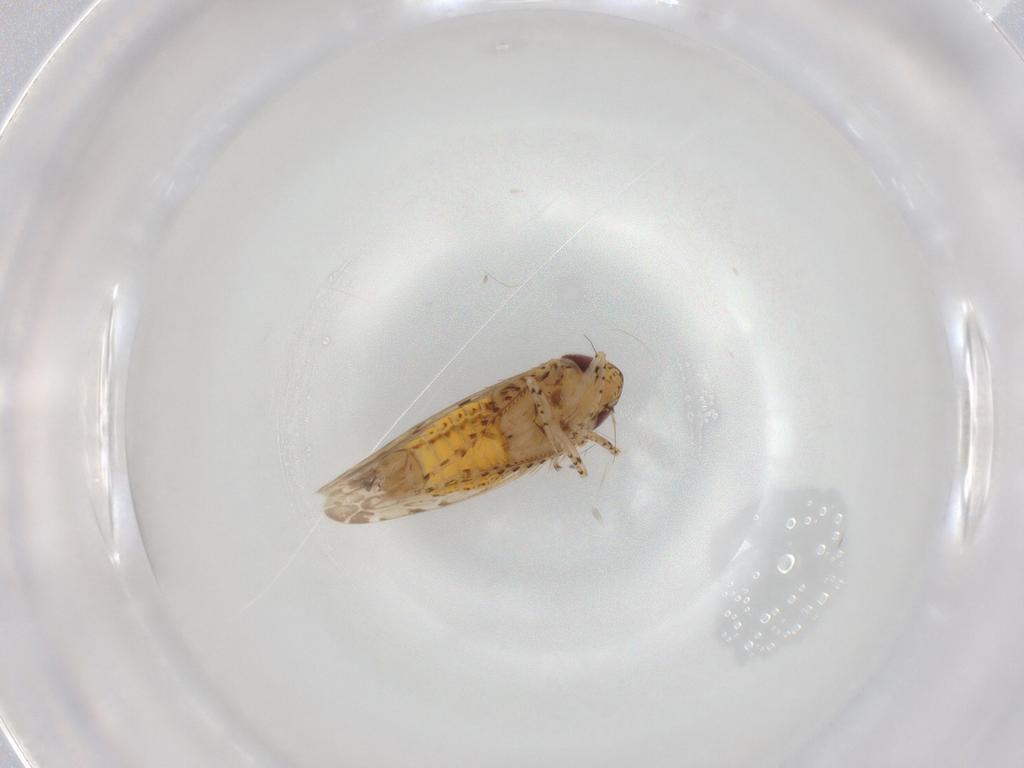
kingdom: Animalia
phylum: Arthropoda
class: Insecta
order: Hemiptera
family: Cicadellidae
